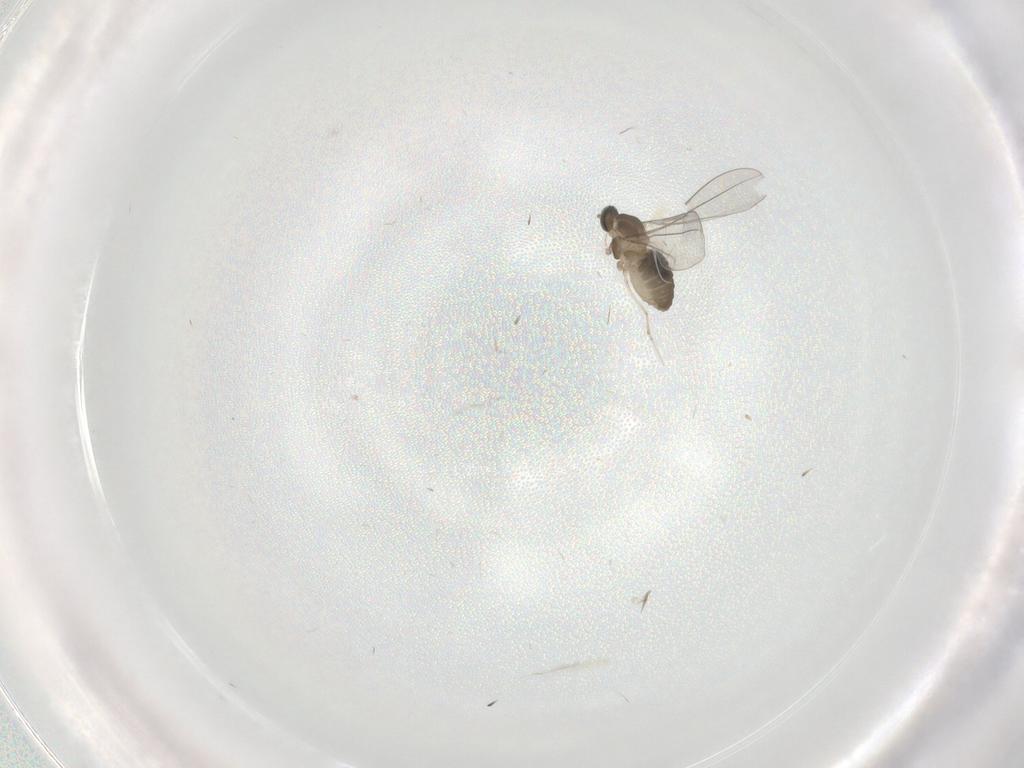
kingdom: Animalia
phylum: Arthropoda
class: Insecta
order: Diptera
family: Cecidomyiidae
